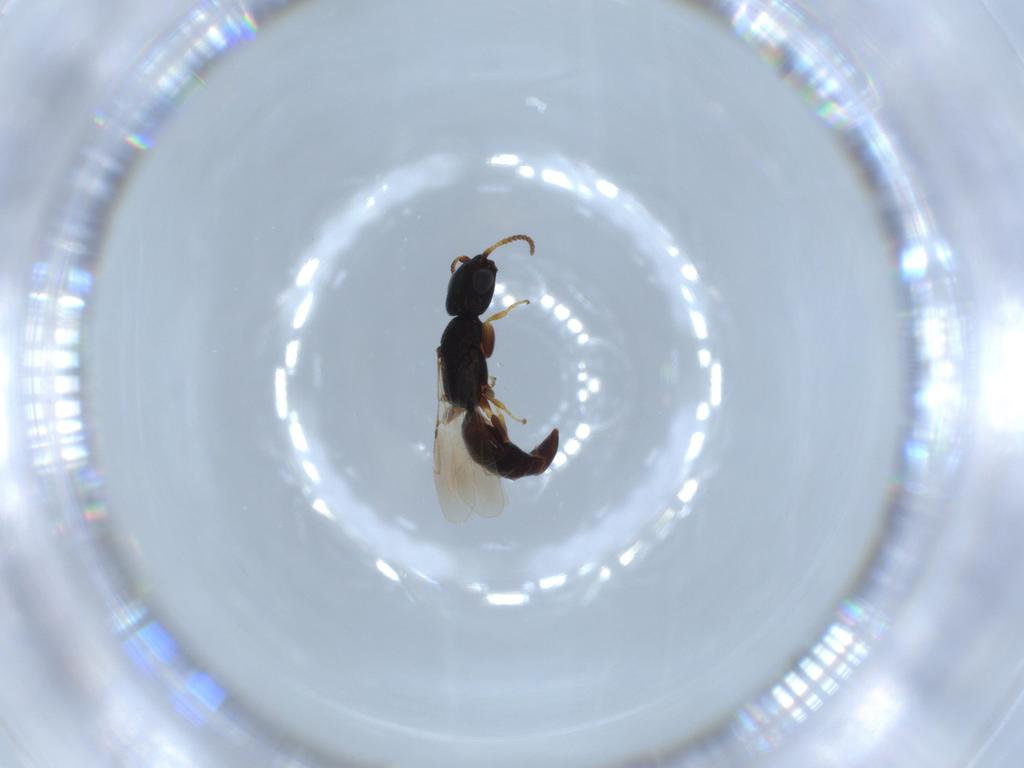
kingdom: Animalia
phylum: Arthropoda
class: Insecta
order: Hymenoptera
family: Bethylidae
